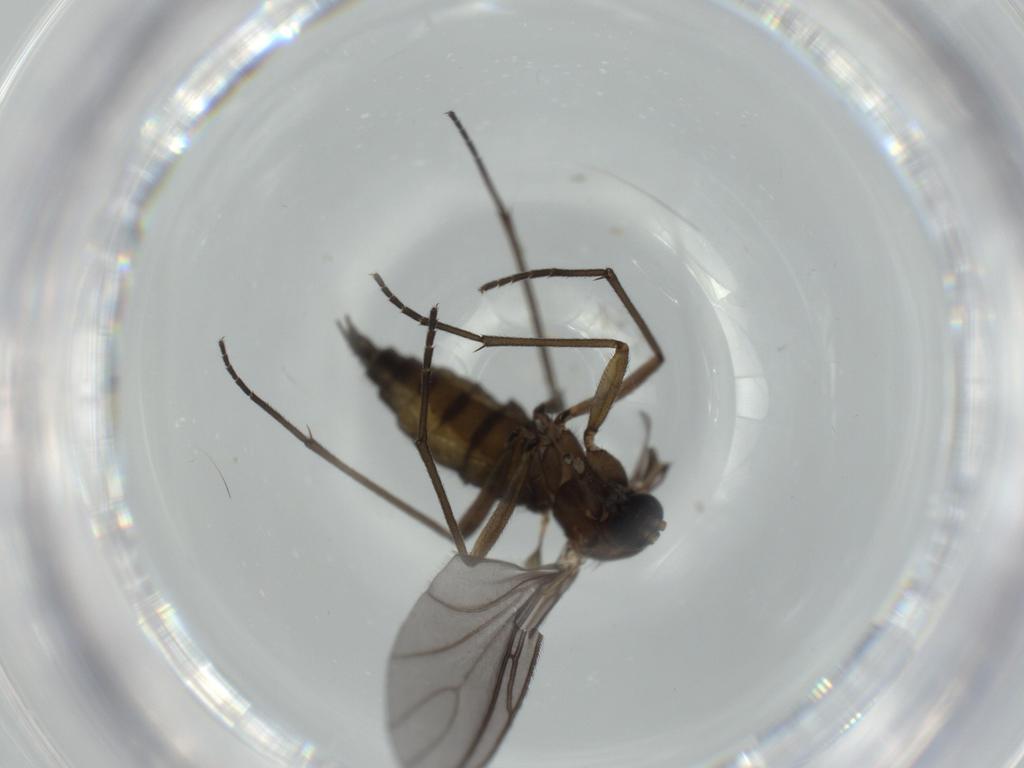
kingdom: Animalia
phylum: Arthropoda
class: Insecta
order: Diptera
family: Sciaridae
